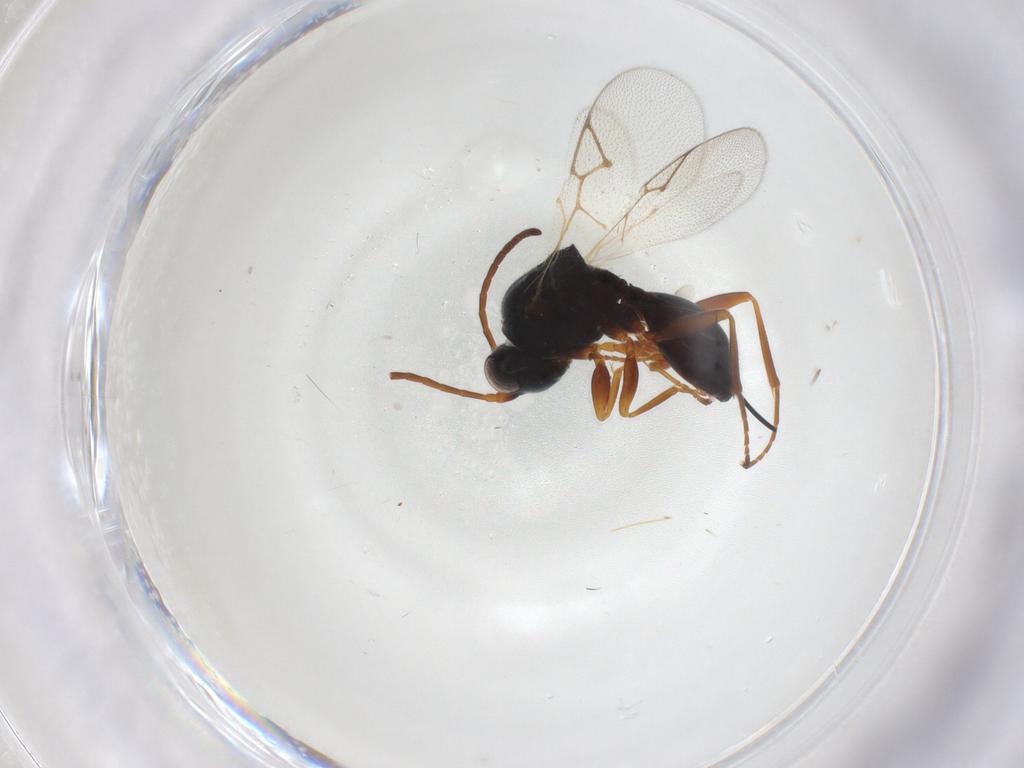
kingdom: Animalia
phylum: Arthropoda
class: Insecta
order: Hymenoptera
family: Figitidae
